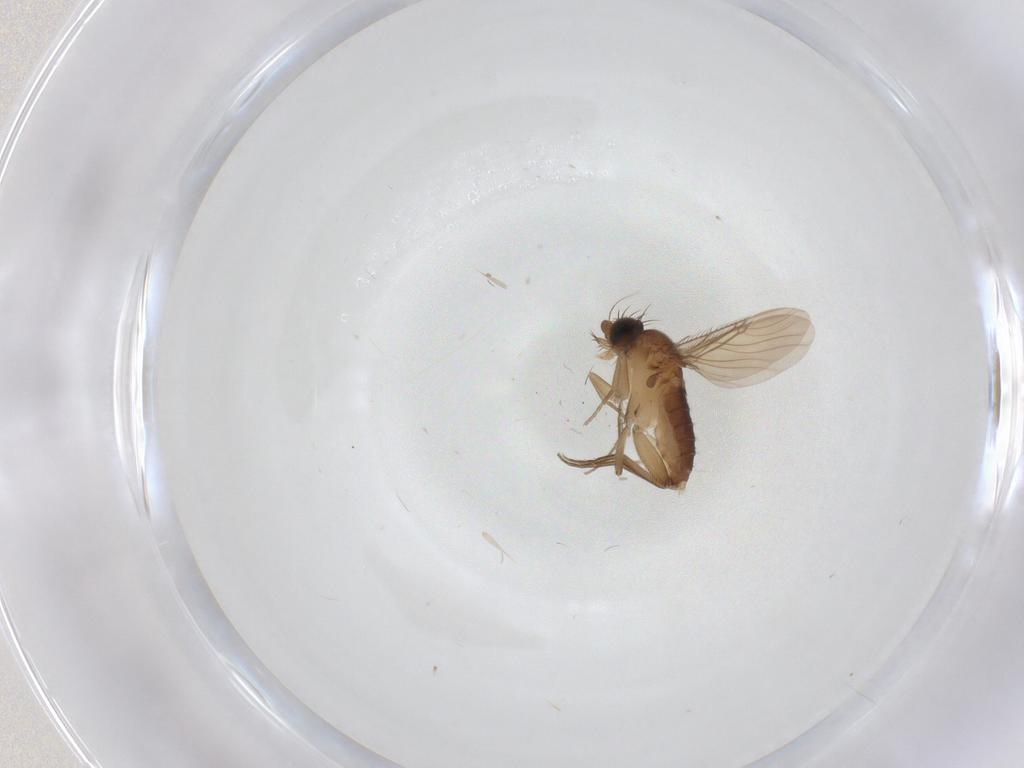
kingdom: Animalia
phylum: Arthropoda
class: Insecta
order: Diptera
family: Phoridae
